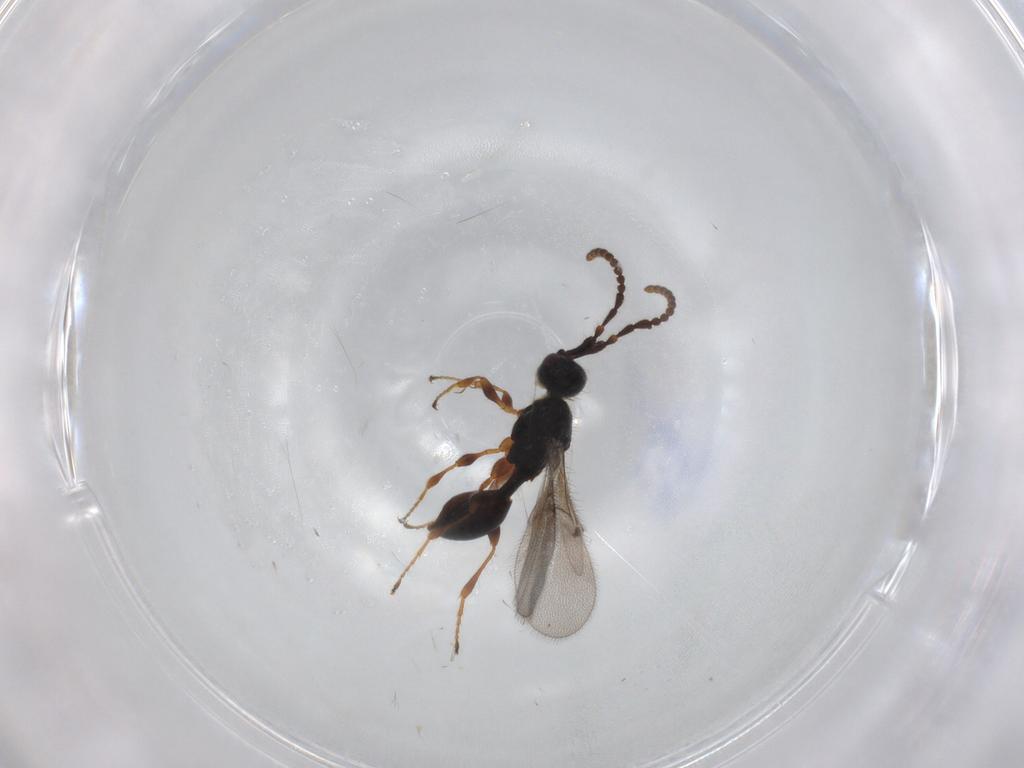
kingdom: Animalia
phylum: Arthropoda
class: Insecta
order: Hymenoptera
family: Diapriidae
